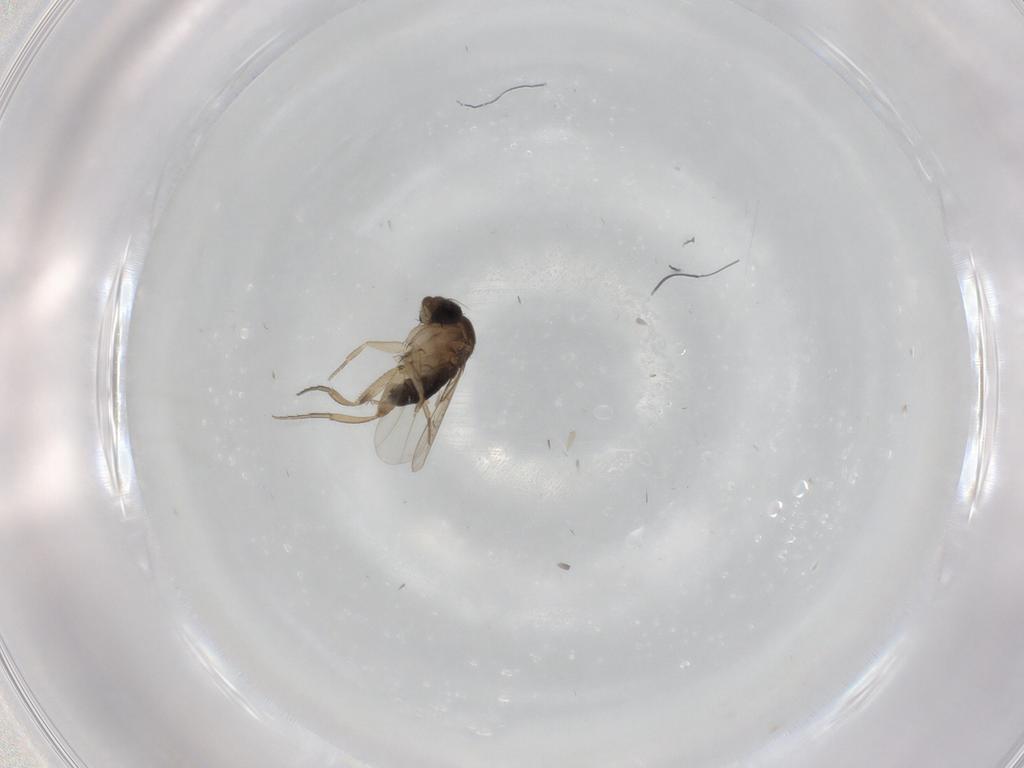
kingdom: Animalia
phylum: Arthropoda
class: Insecta
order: Diptera
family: Phoridae
